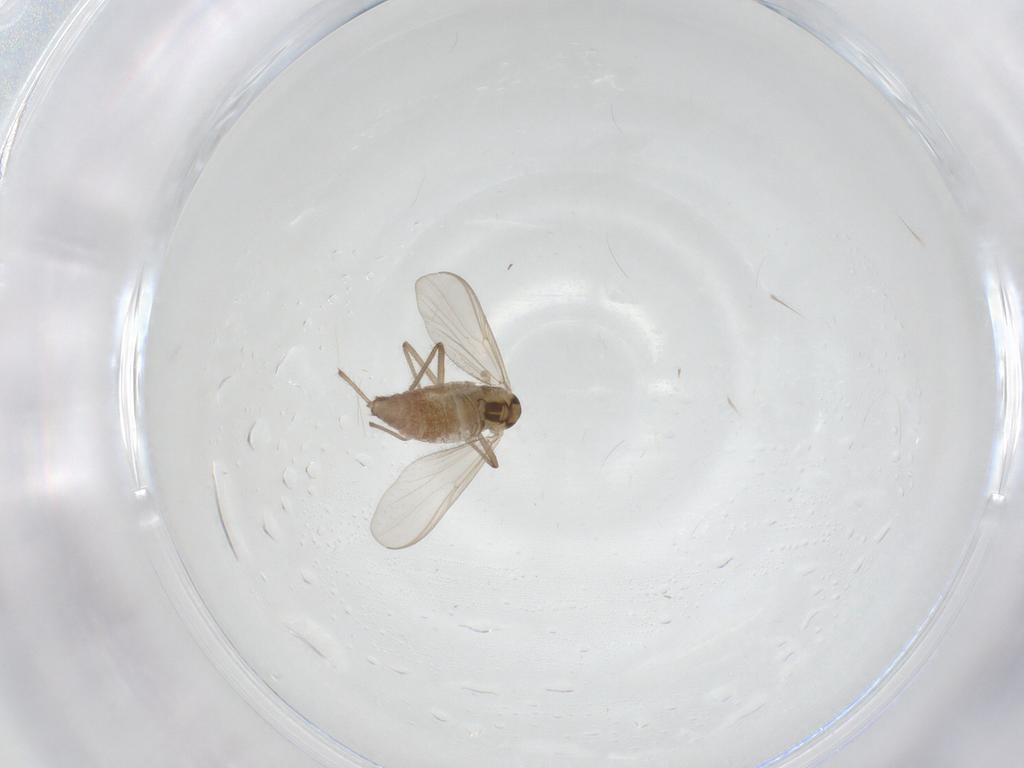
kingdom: Animalia
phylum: Arthropoda
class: Insecta
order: Diptera
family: Chironomidae
